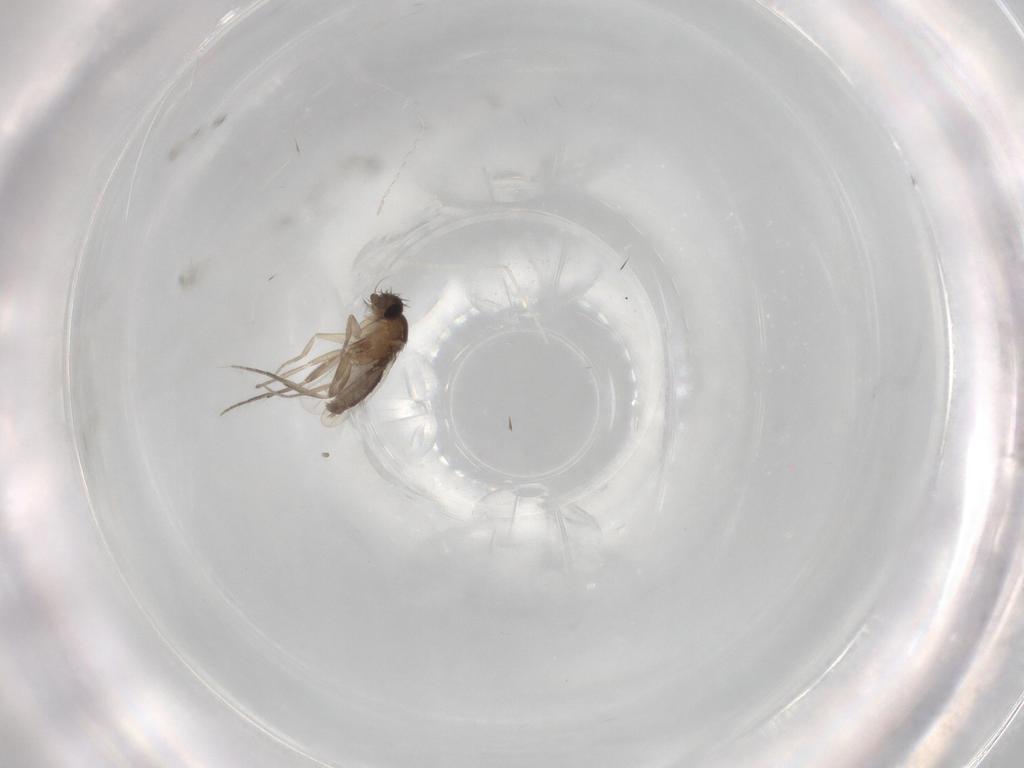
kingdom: Animalia
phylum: Arthropoda
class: Insecta
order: Diptera
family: Phoridae
